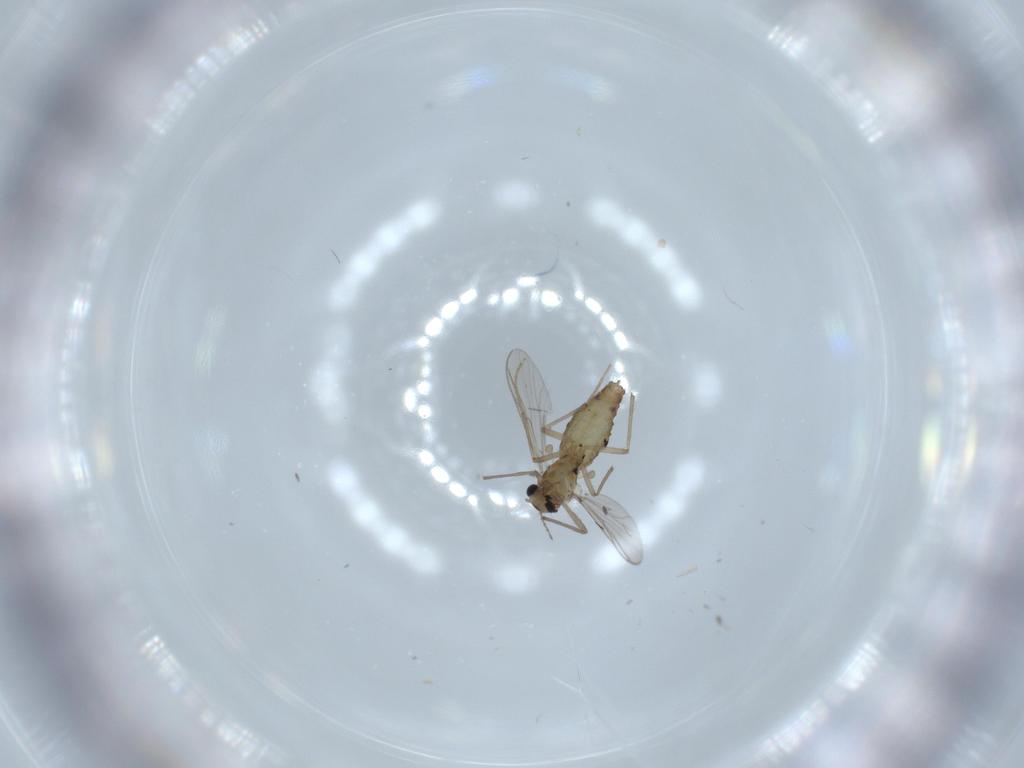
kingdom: Animalia
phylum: Arthropoda
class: Insecta
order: Diptera
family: Chironomidae
